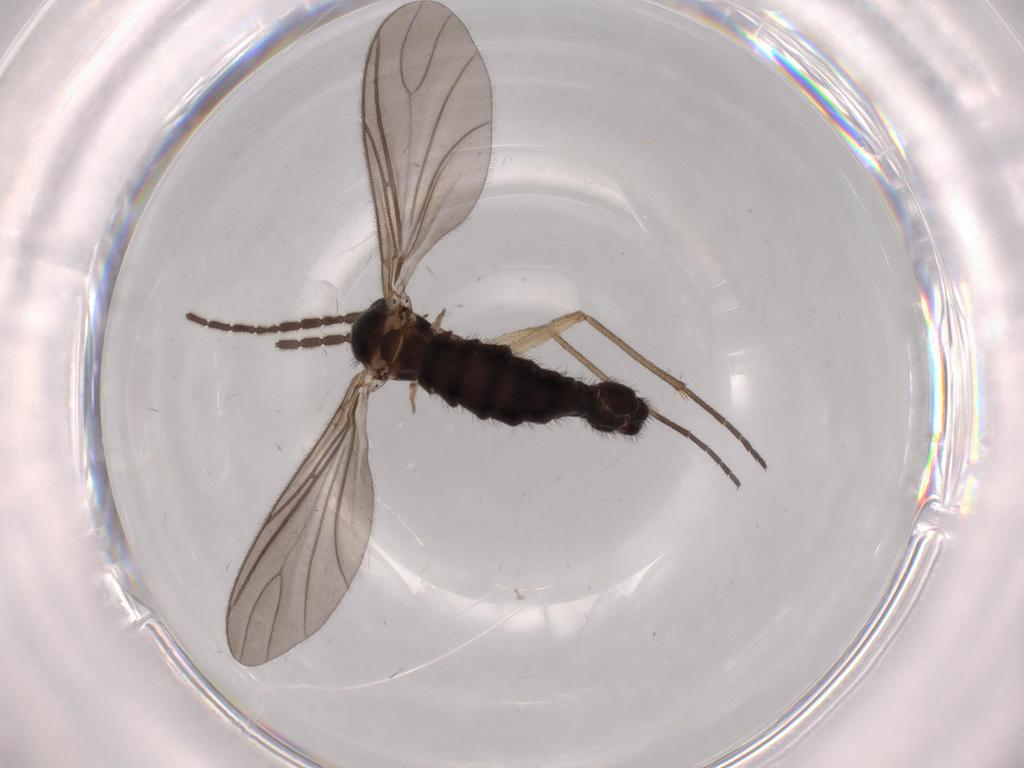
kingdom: Animalia
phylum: Arthropoda
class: Insecta
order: Diptera
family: Sciaridae
